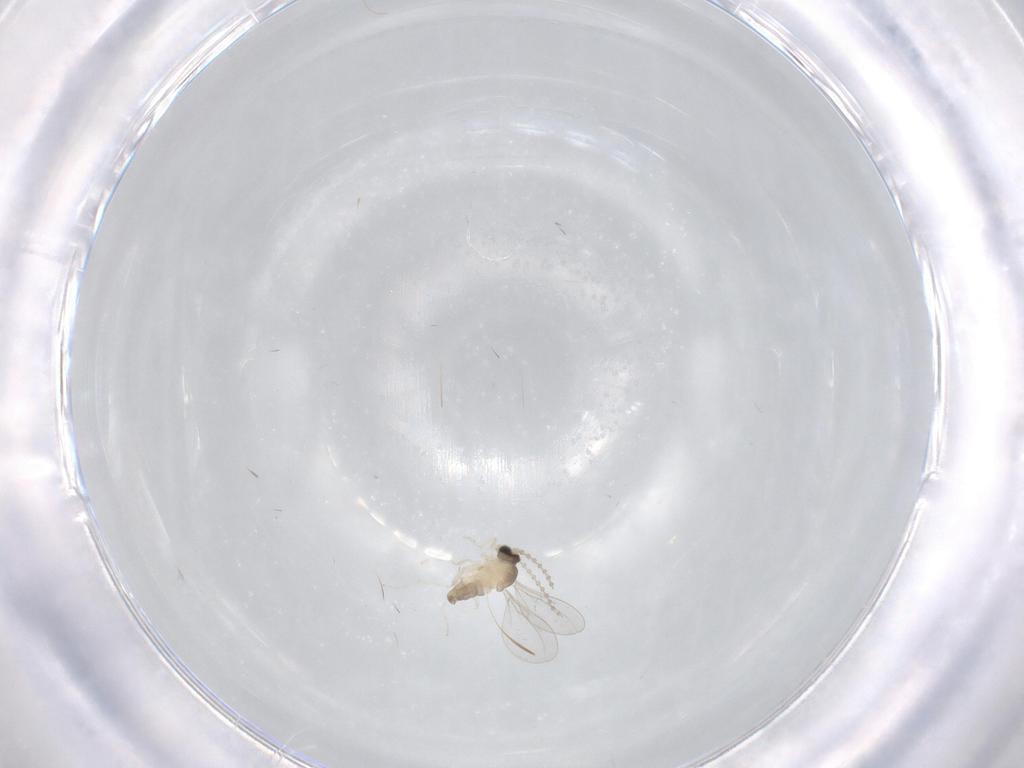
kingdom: Animalia
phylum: Arthropoda
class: Insecta
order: Diptera
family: Cecidomyiidae
